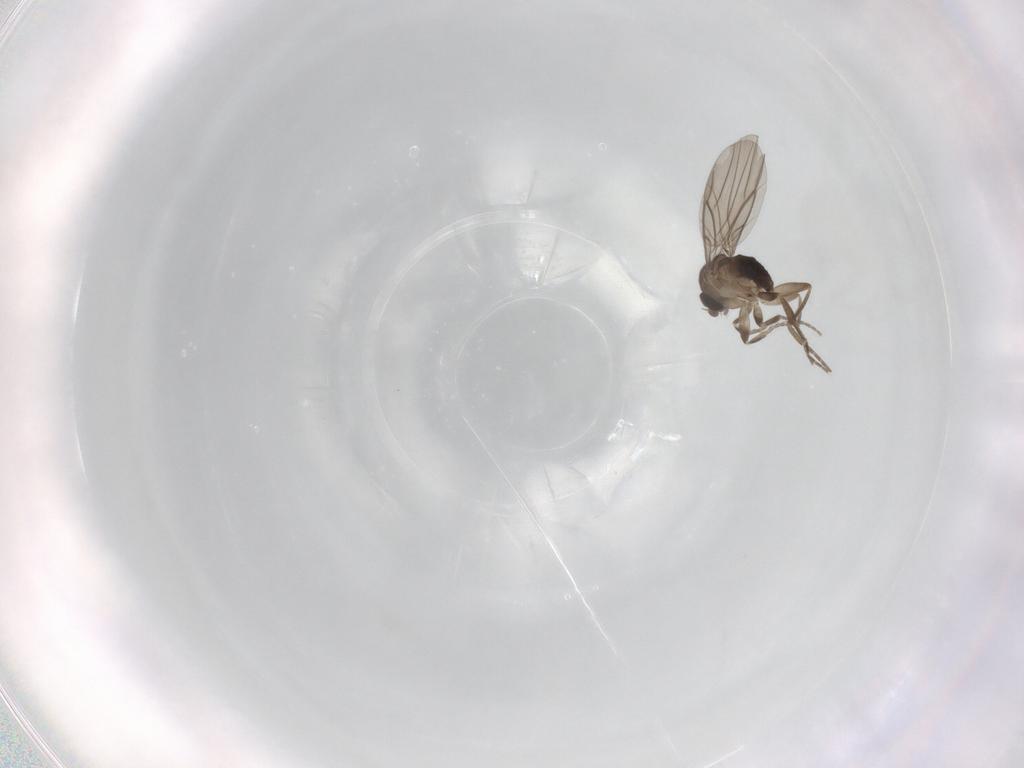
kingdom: Animalia
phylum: Arthropoda
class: Insecta
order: Diptera
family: Phoridae
